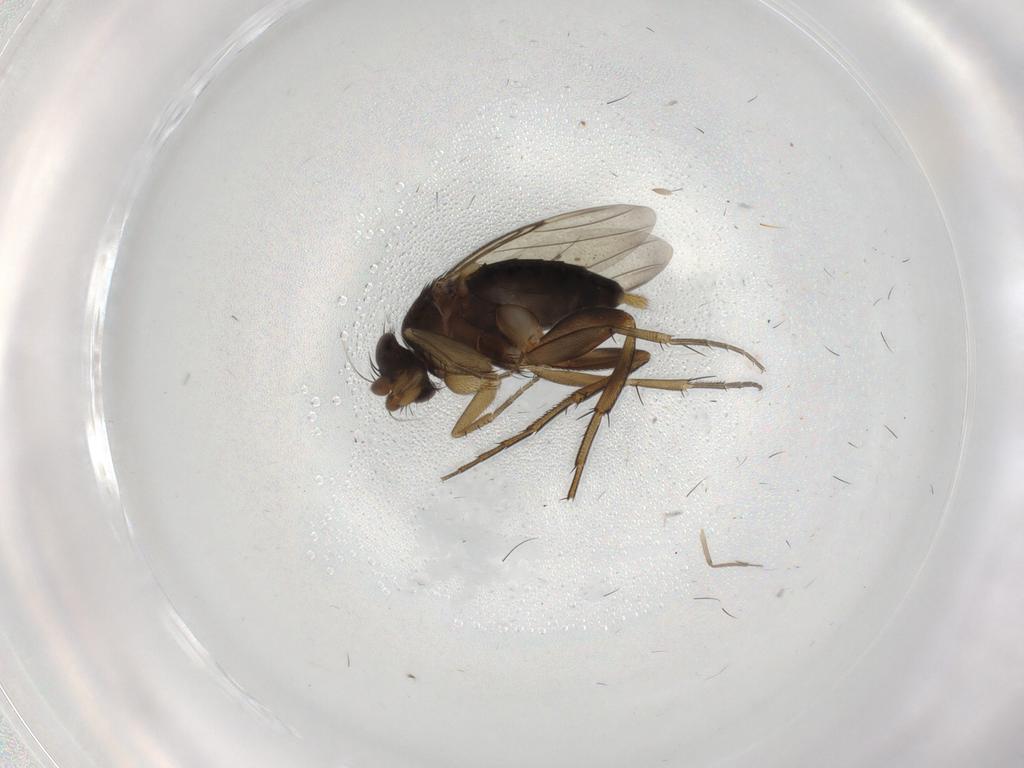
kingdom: Animalia
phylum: Arthropoda
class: Insecta
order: Diptera
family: Phoridae
